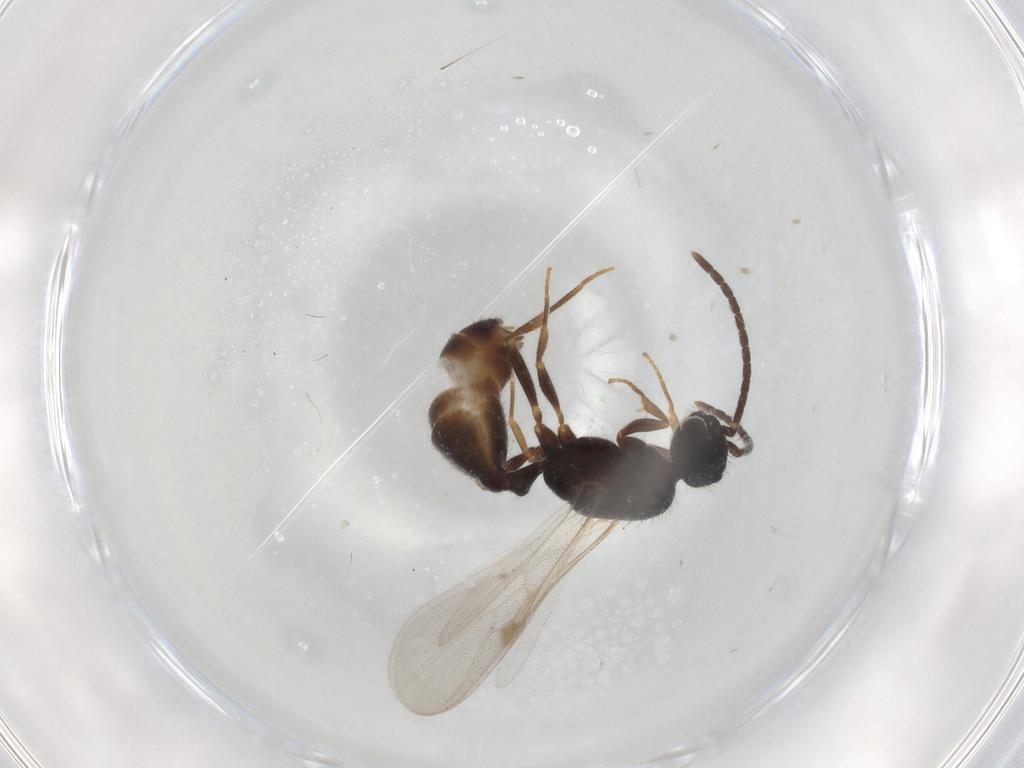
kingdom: Animalia
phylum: Arthropoda
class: Insecta
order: Hymenoptera
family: Formicidae
